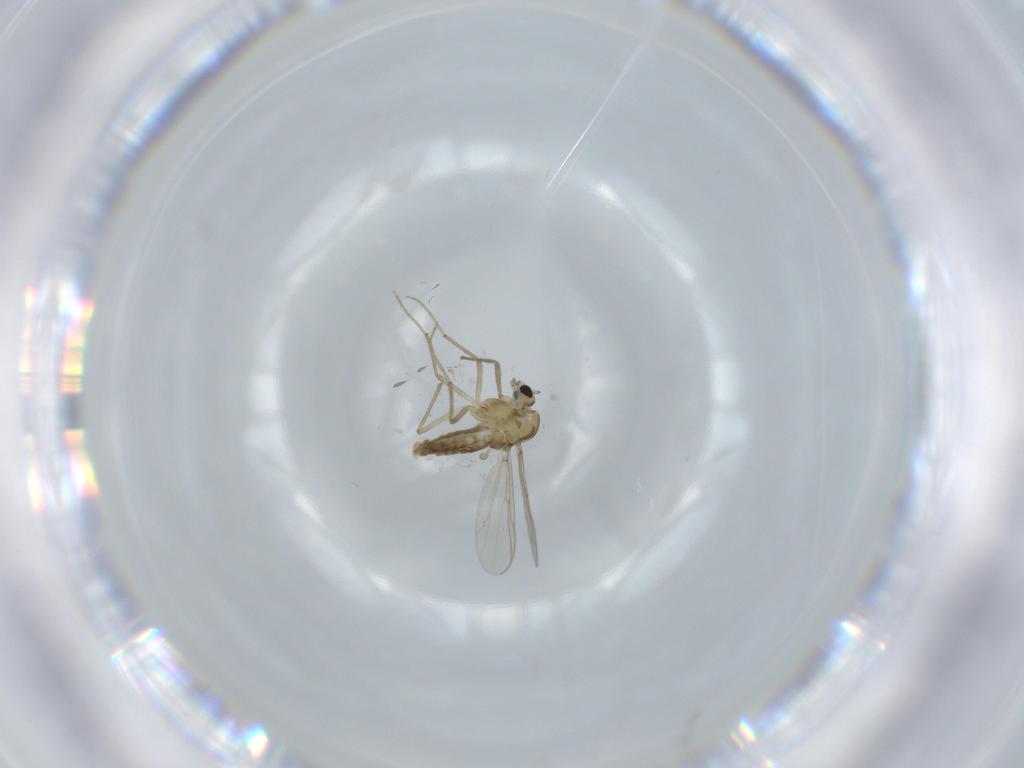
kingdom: Animalia
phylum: Arthropoda
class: Insecta
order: Diptera
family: Chironomidae
